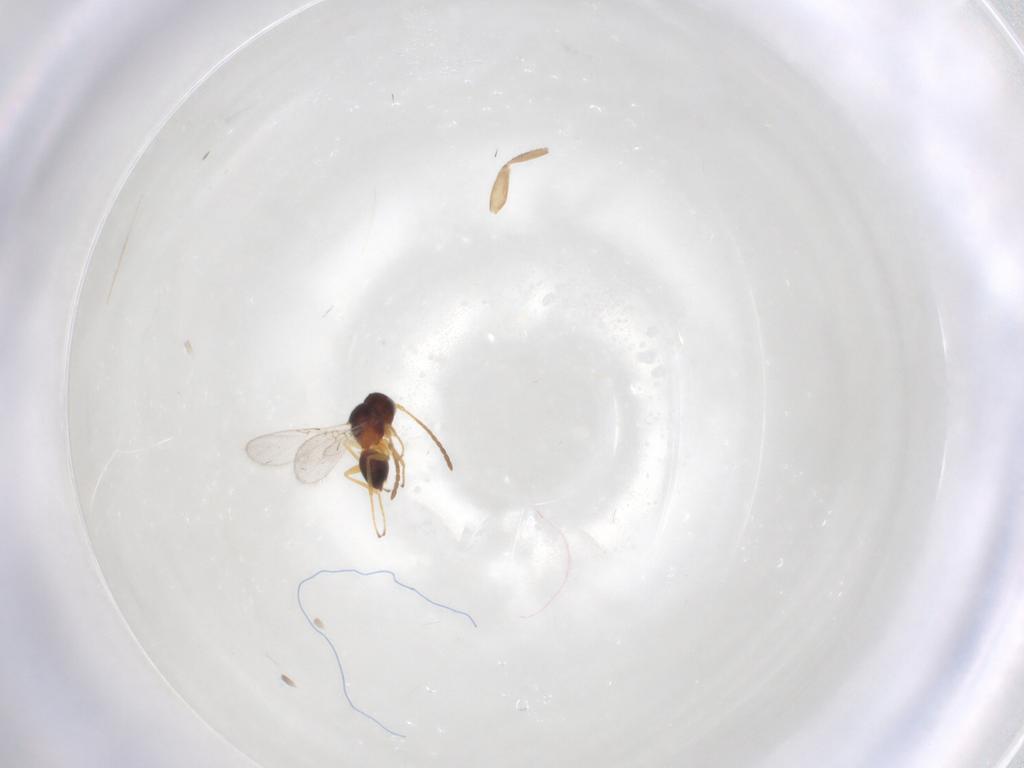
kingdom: Animalia
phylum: Arthropoda
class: Insecta
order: Hymenoptera
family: Figitidae
